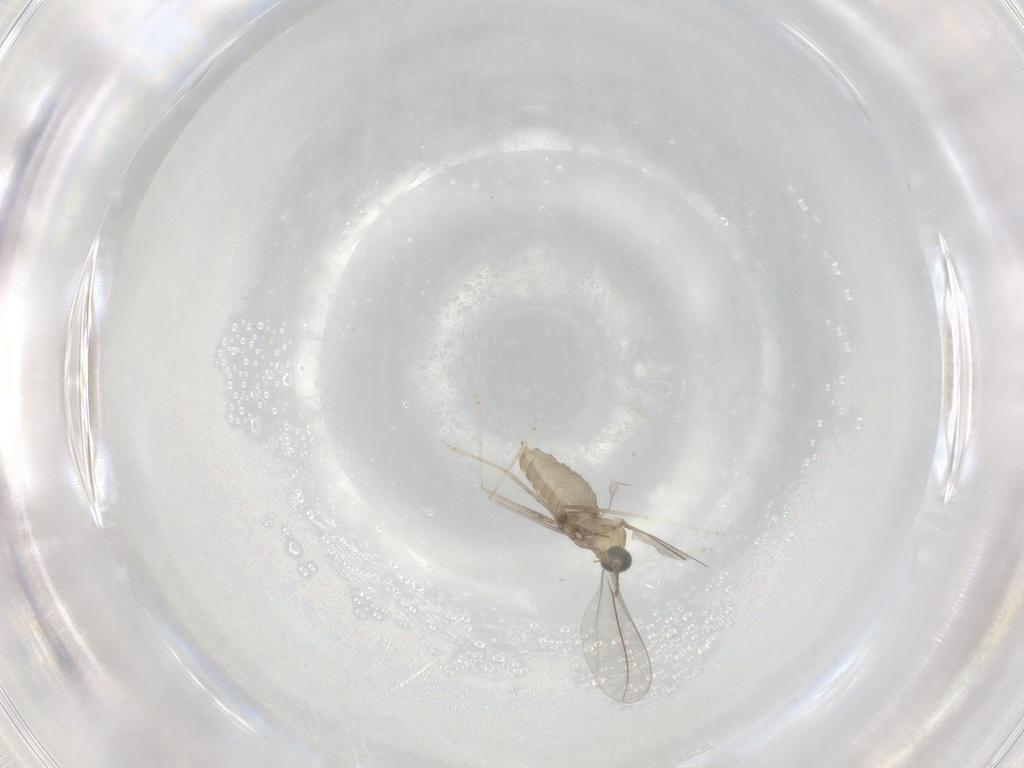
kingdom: Animalia
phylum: Arthropoda
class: Insecta
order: Diptera
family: Cecidomyiidae
